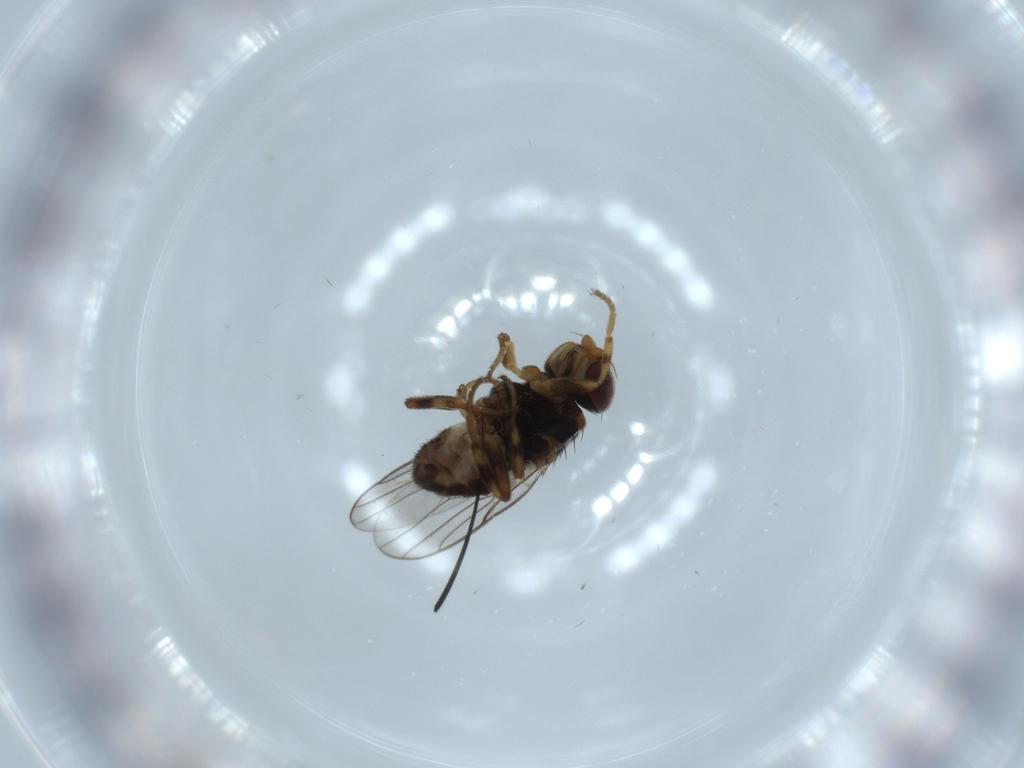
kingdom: Animalia
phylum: Arthropoda
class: Insecta
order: Diptera
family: Chloropidae
